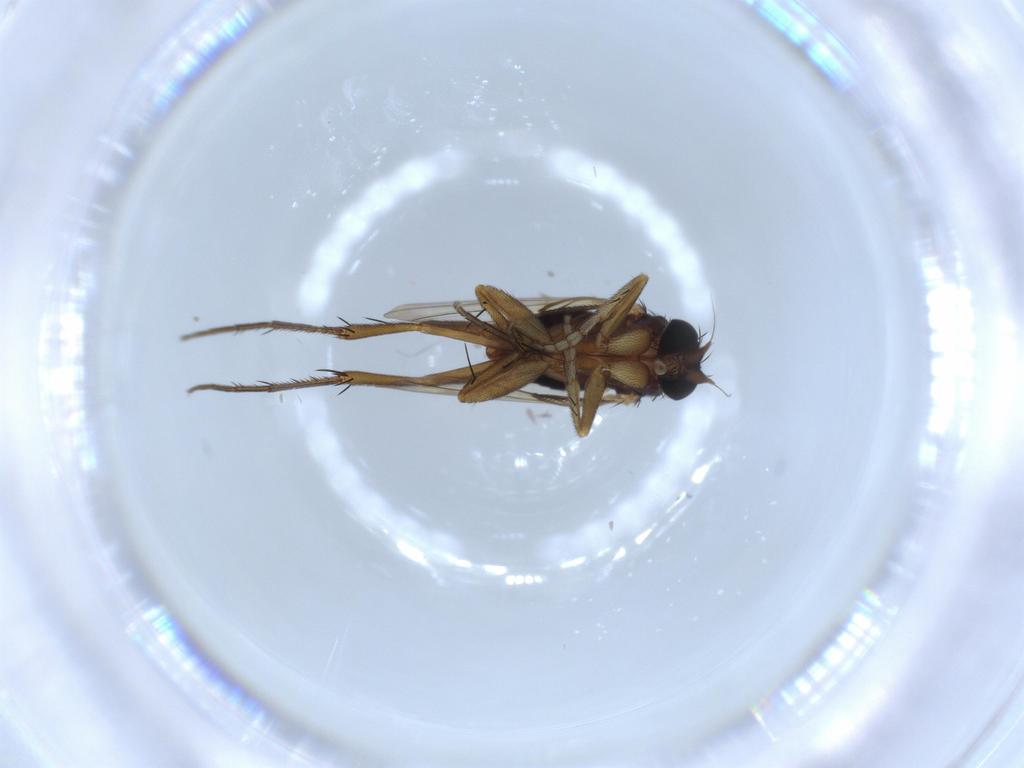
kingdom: Animalia
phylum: Arthropoda
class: Insecta
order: Diptera
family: Cecidomyiidae
